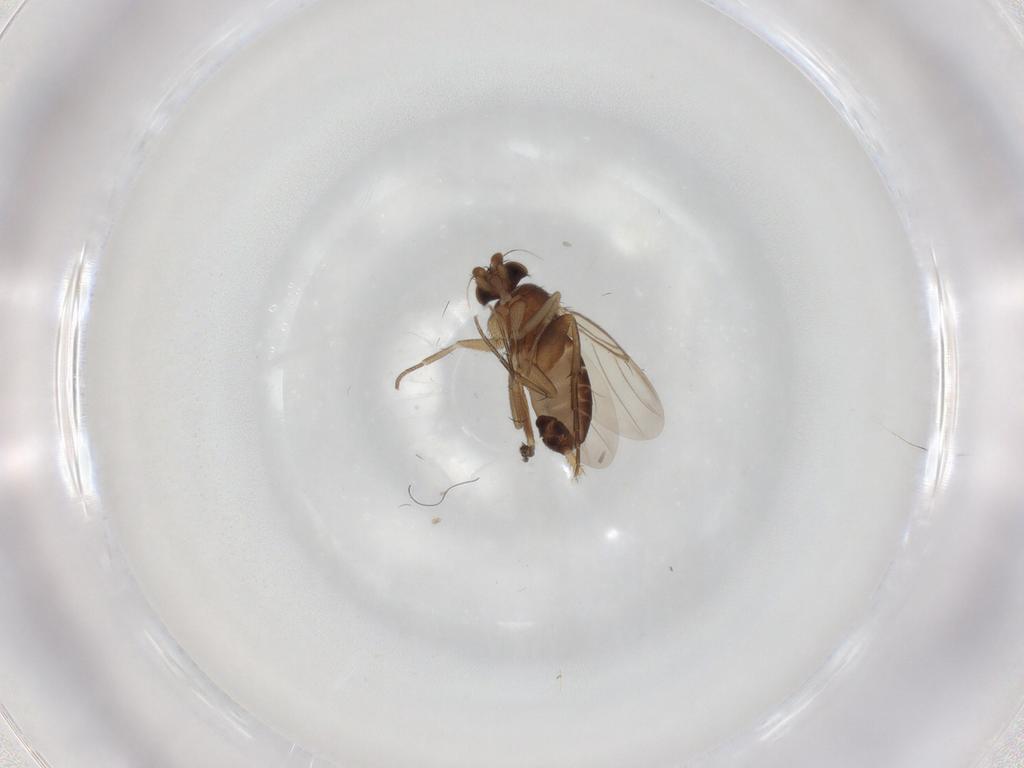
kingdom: Animalia
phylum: Arthropoda
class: Insecta
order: Diptera
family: Phoridae
